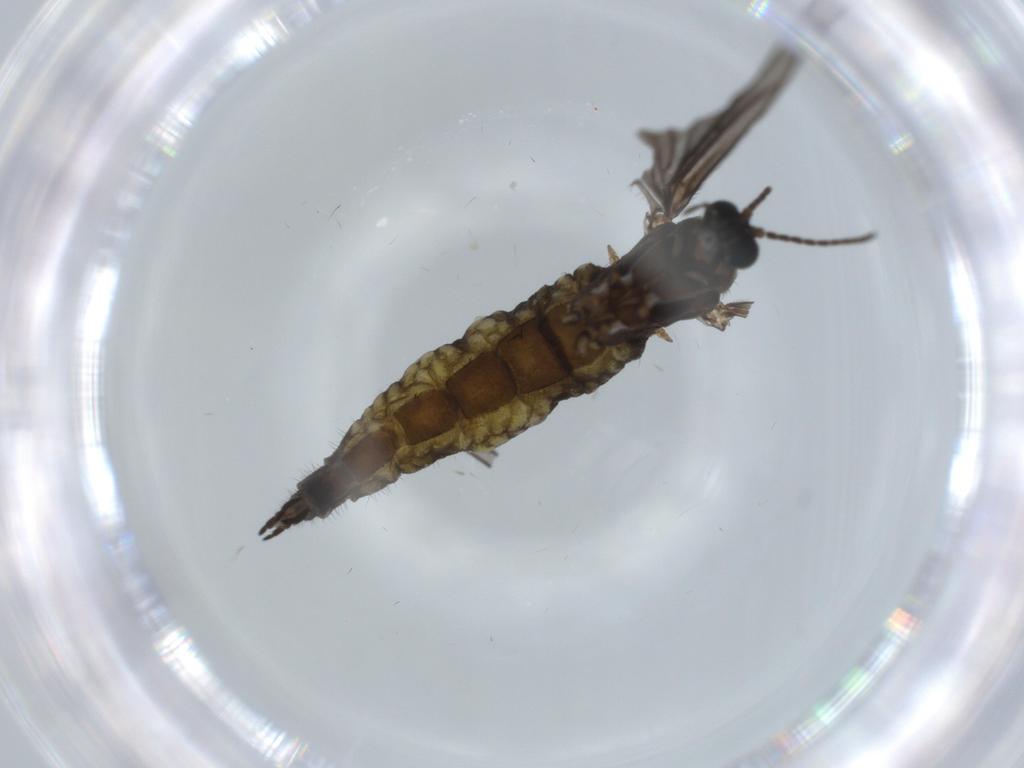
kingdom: Animalia
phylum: Arthropoda
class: Insecta
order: Diptera
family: Sciaridae
